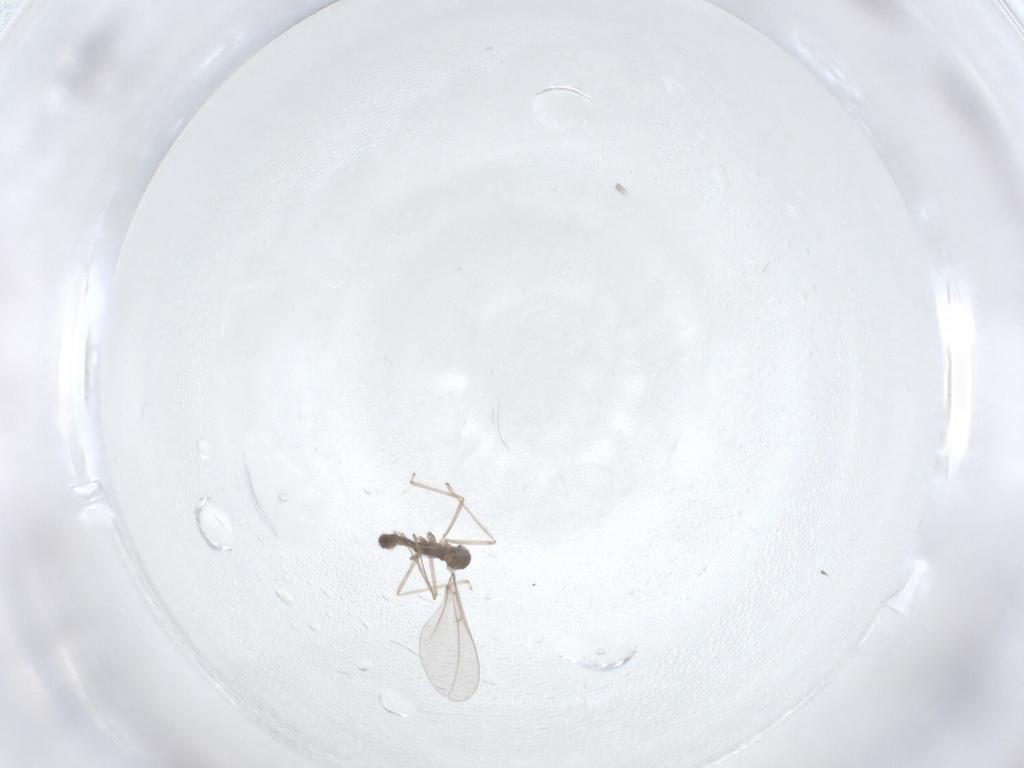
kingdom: Animalia
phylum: Arthropoda
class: Insecta
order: Diptera
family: Cecidomyiidae
